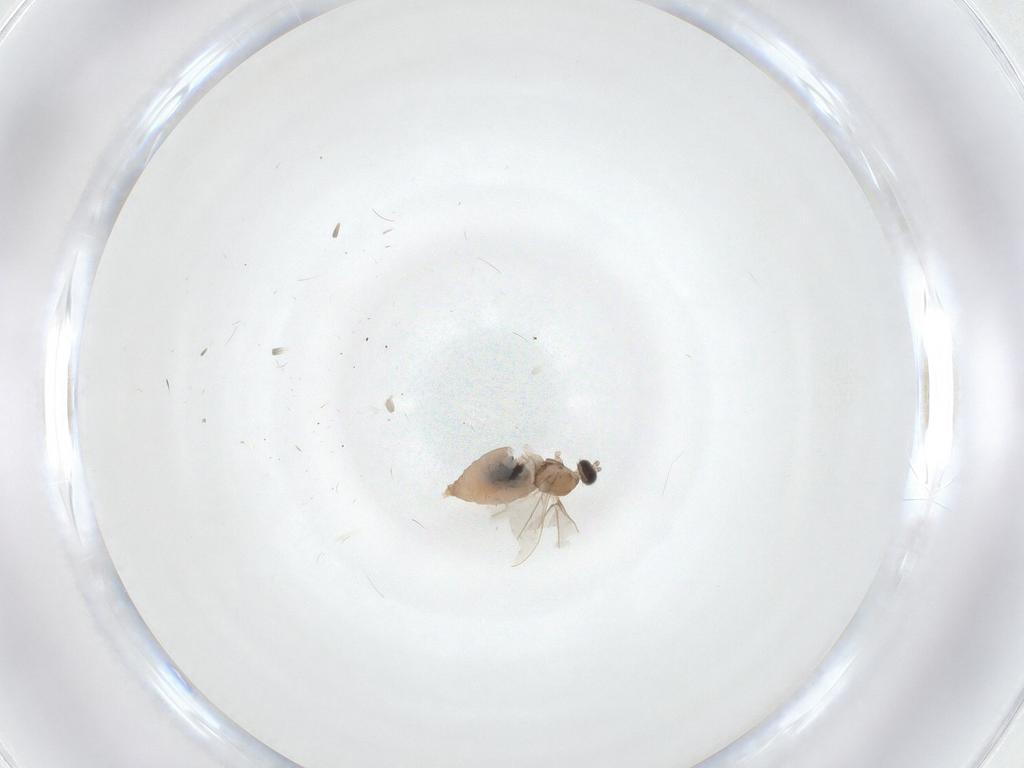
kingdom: Animalia
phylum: Arthropoda
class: Insecta
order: Diptera
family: Cecidomyiidae
